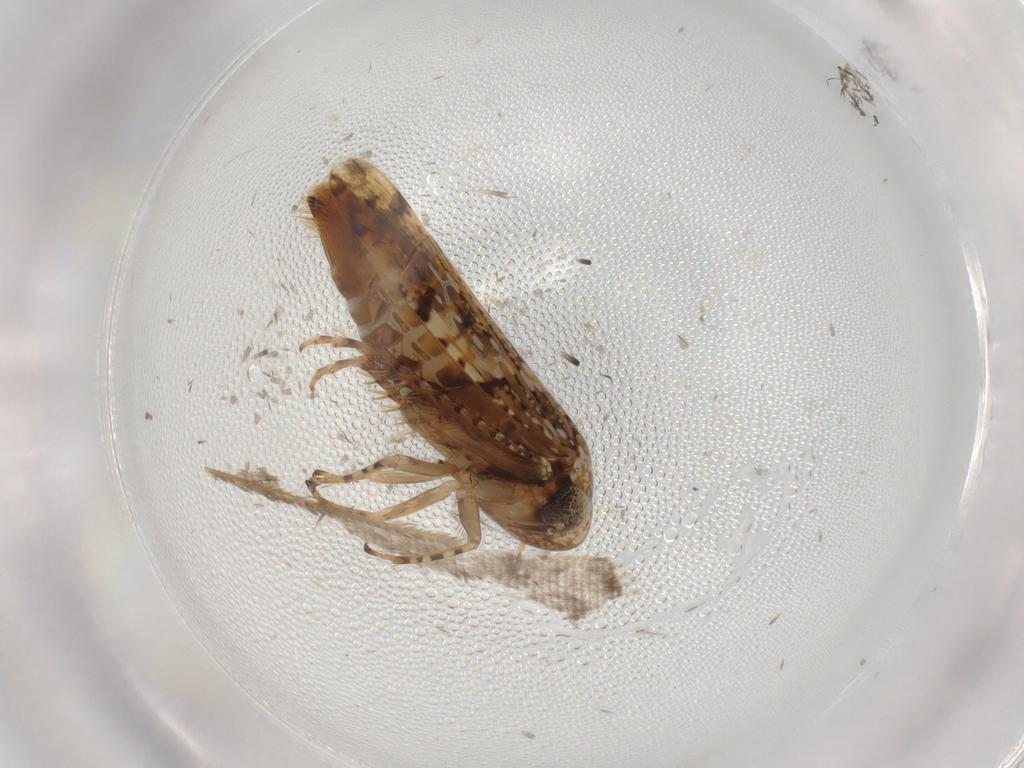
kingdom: Animalia
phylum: Arthropoda
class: Insecta
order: Hemiptera
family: Cicadellidae
